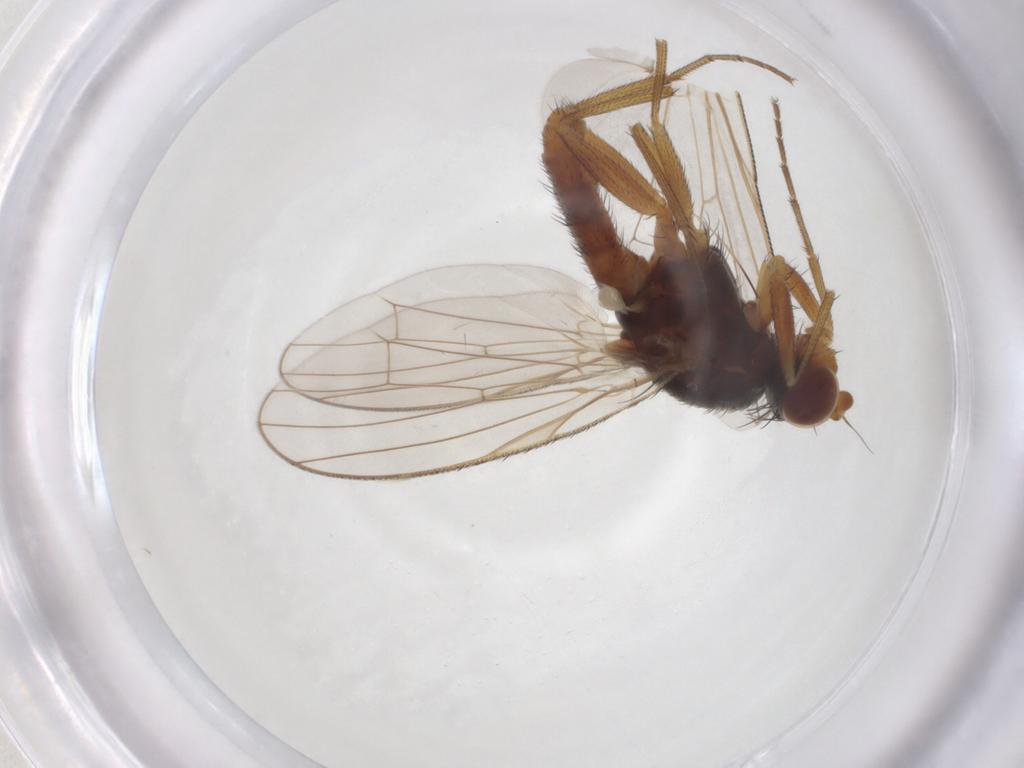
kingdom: Animalia
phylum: Arthropoda
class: Insecta
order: Diptera
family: Heleomyzidae
